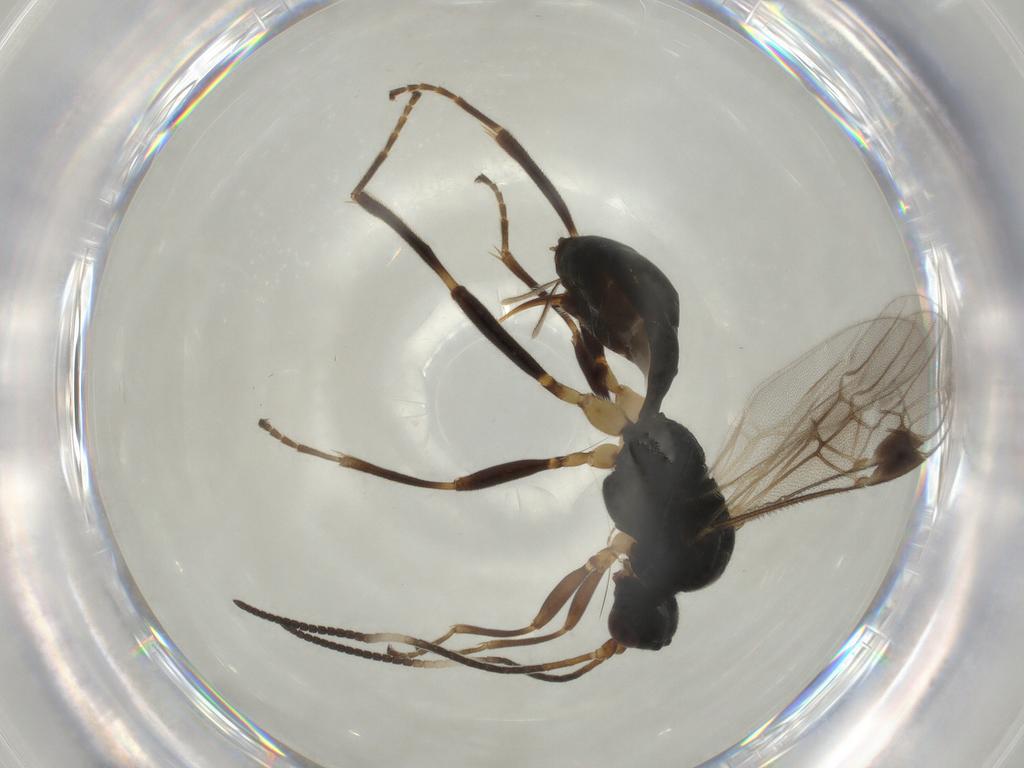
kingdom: Animalia
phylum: Arthropoda
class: Insecta
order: Hymenoptera
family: Braconidae
